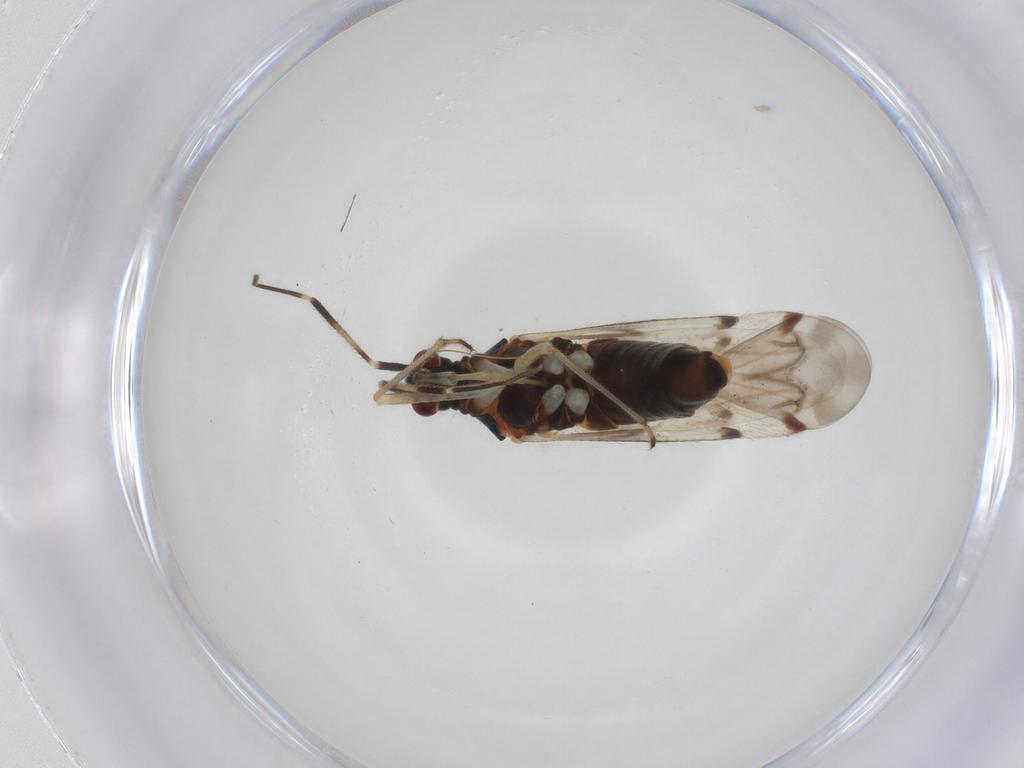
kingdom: Animalia
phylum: Arthropoda
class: Insecta
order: Hemiptera
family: Miridae
